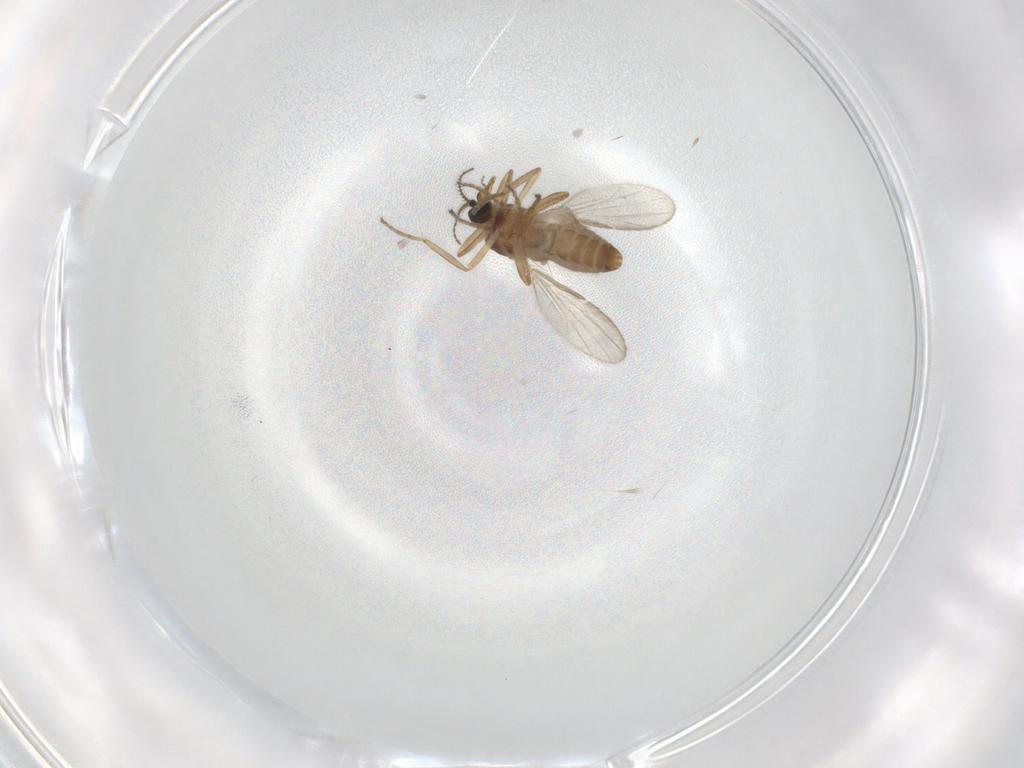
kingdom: Animalia
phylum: Arthropoda
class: Insecta
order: Diptera
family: Ceratopogonidae
